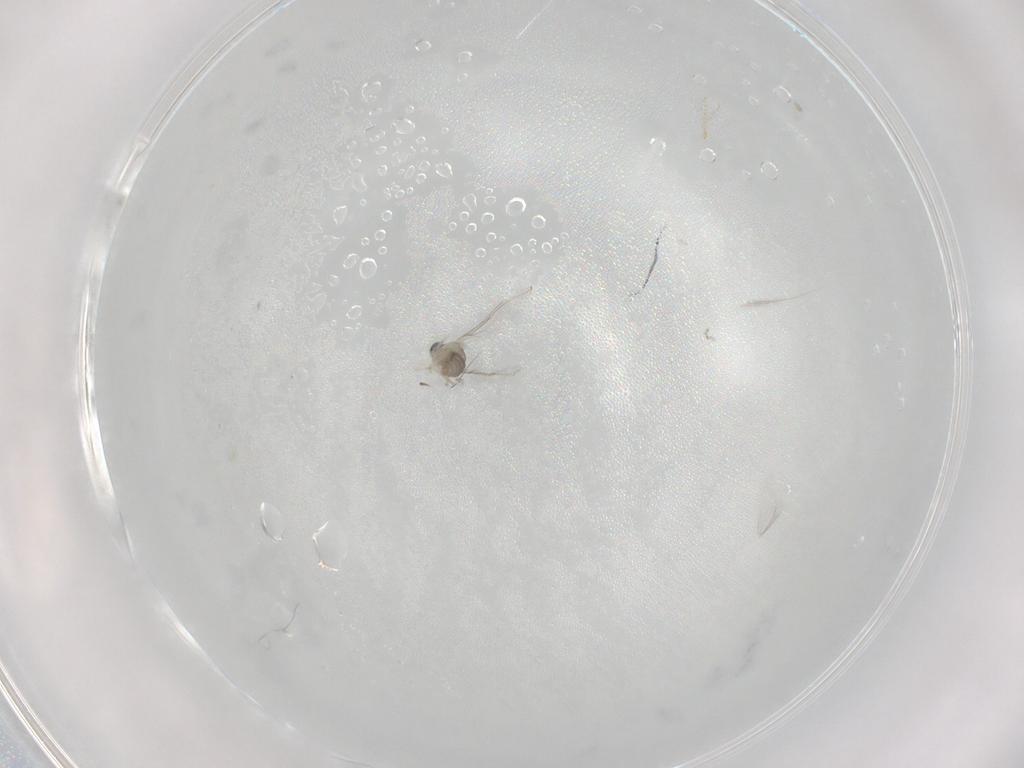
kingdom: Animalia
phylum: Arthropoda
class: Insecta
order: Diptera
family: Cecidomyiidae
